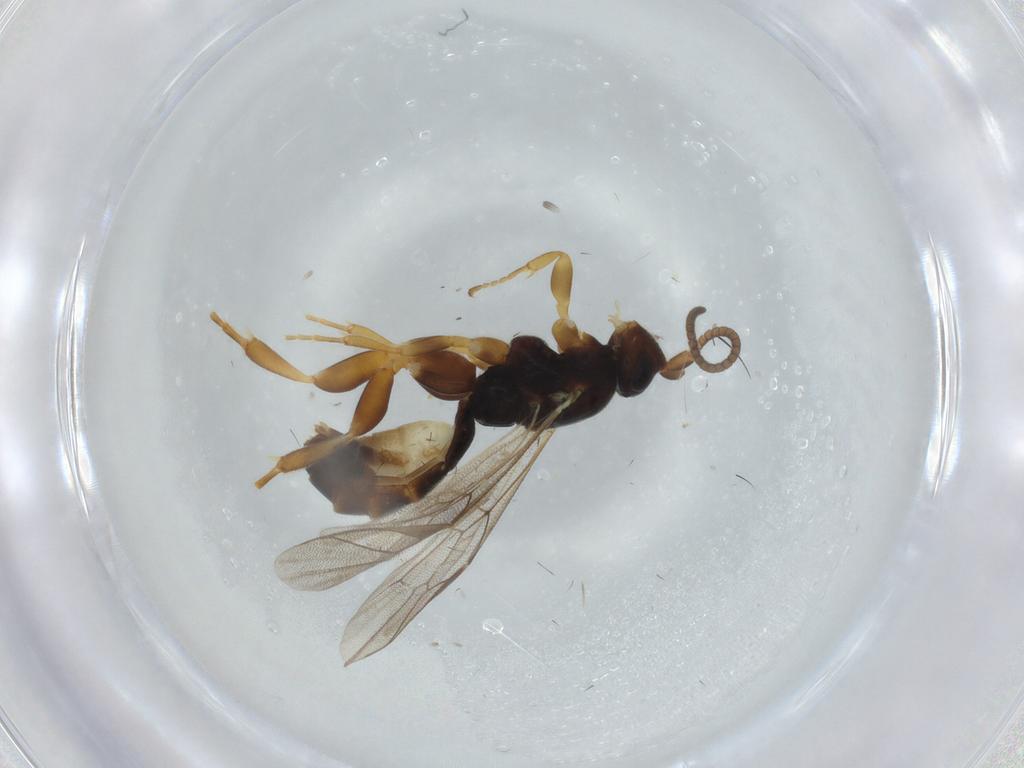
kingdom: Animalia
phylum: Arthropoda
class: Insecta
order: Hymenoptera
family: Ichneumonidae
